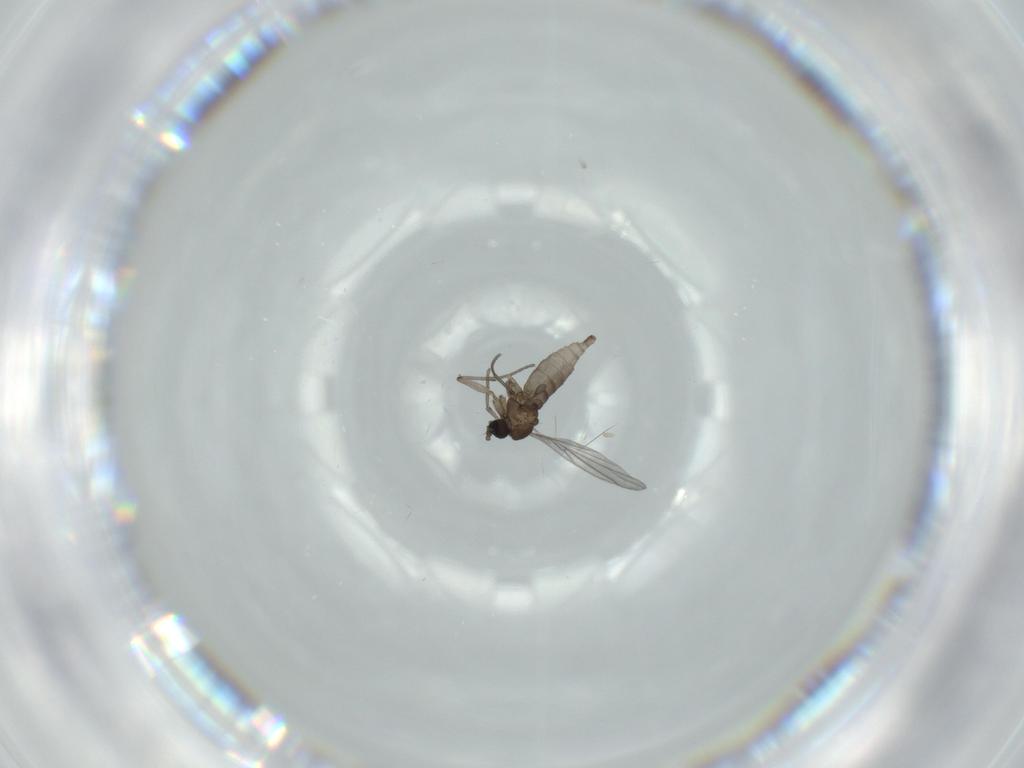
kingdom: Animalia
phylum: Arthropoda
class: Insecta
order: Diptera
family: Sciaridae
